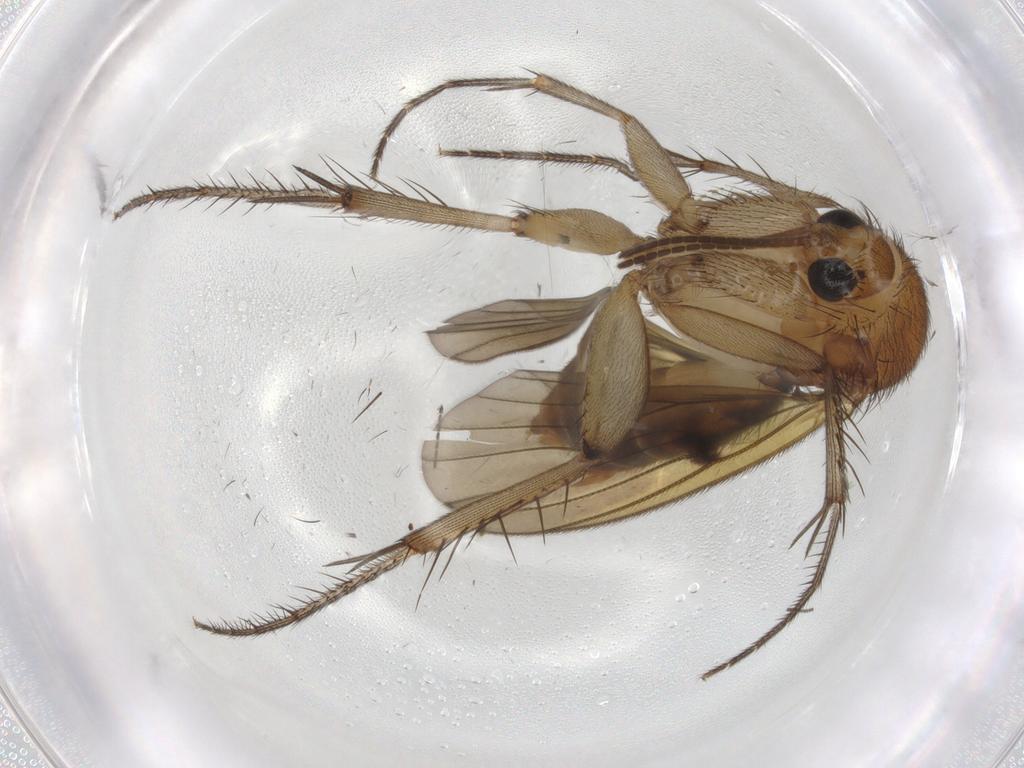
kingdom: Animalia
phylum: Arthropoda
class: Insecta
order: Diptera
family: Mycetophilidae
